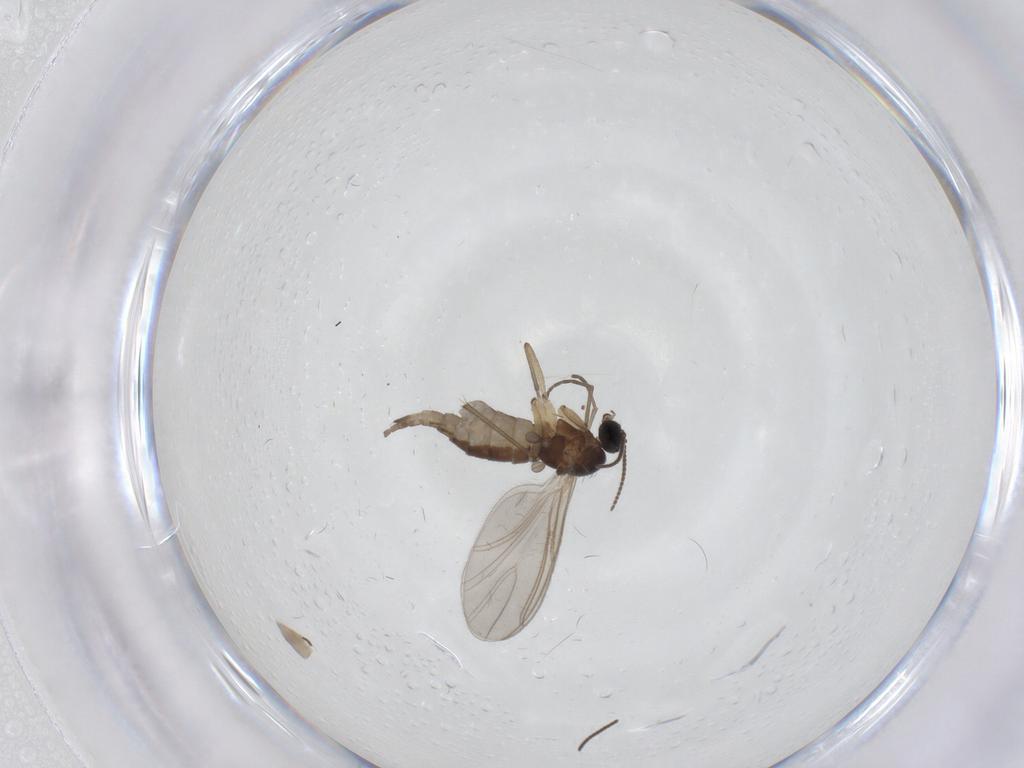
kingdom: Animalia
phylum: Arthropoda
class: Insecta
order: Diptera
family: Sciaridae
